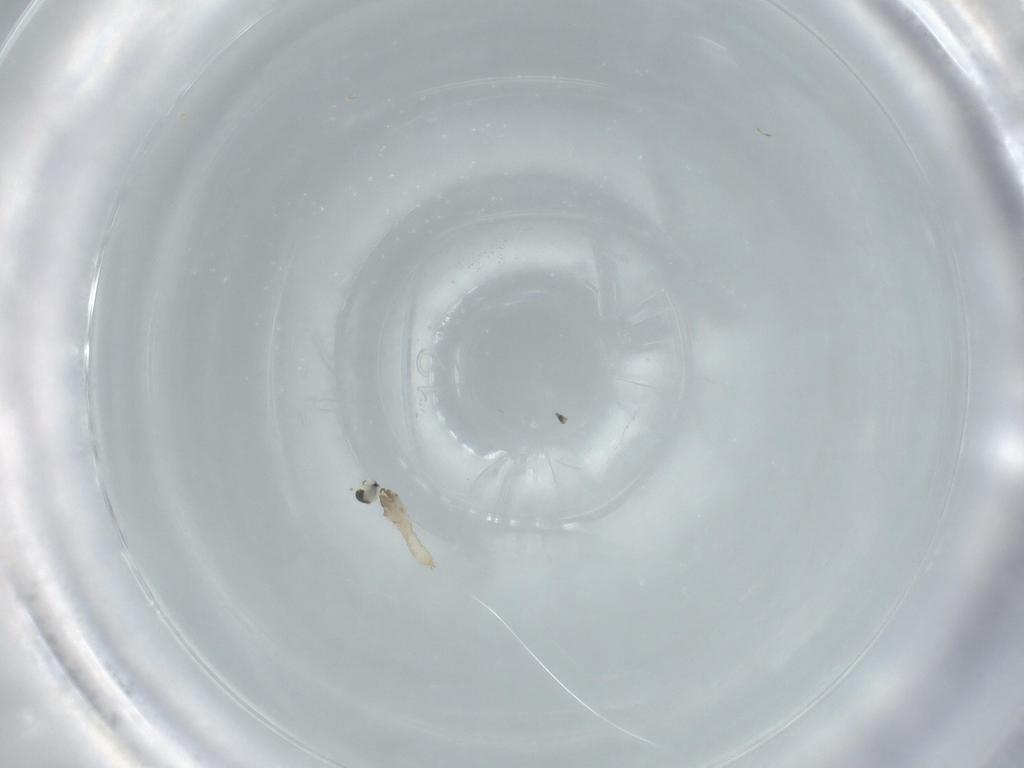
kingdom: Animalia
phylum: Arthropoda
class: Insecta
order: Diptera
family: Cecidomyiidae
